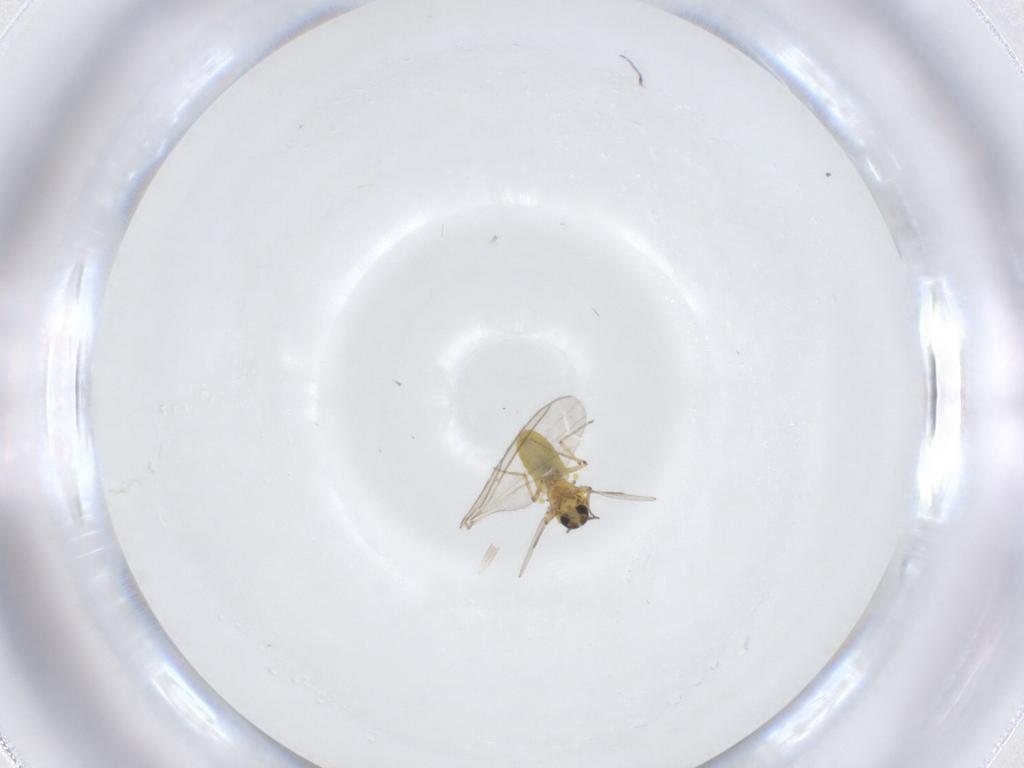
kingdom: Animalia
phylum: Arthropoda
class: Insecta
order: Diptera
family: Ceratopogonidae
